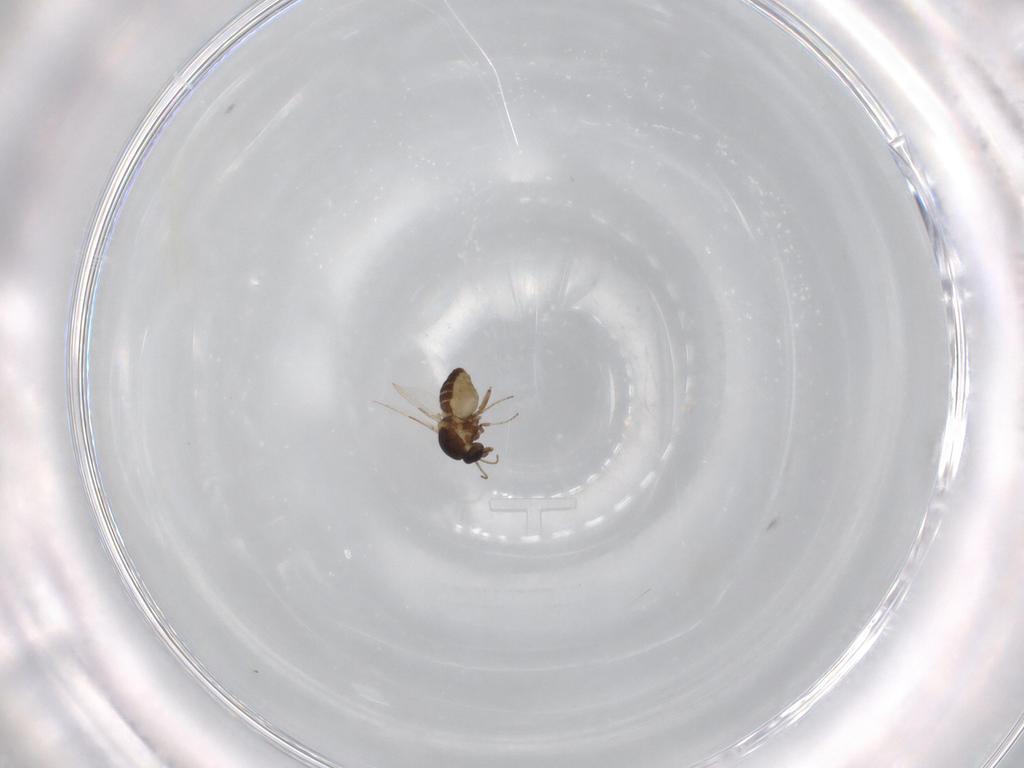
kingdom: Animalia
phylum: Arthropoda
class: Insecta
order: Diptera
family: Ceratopogonidae
